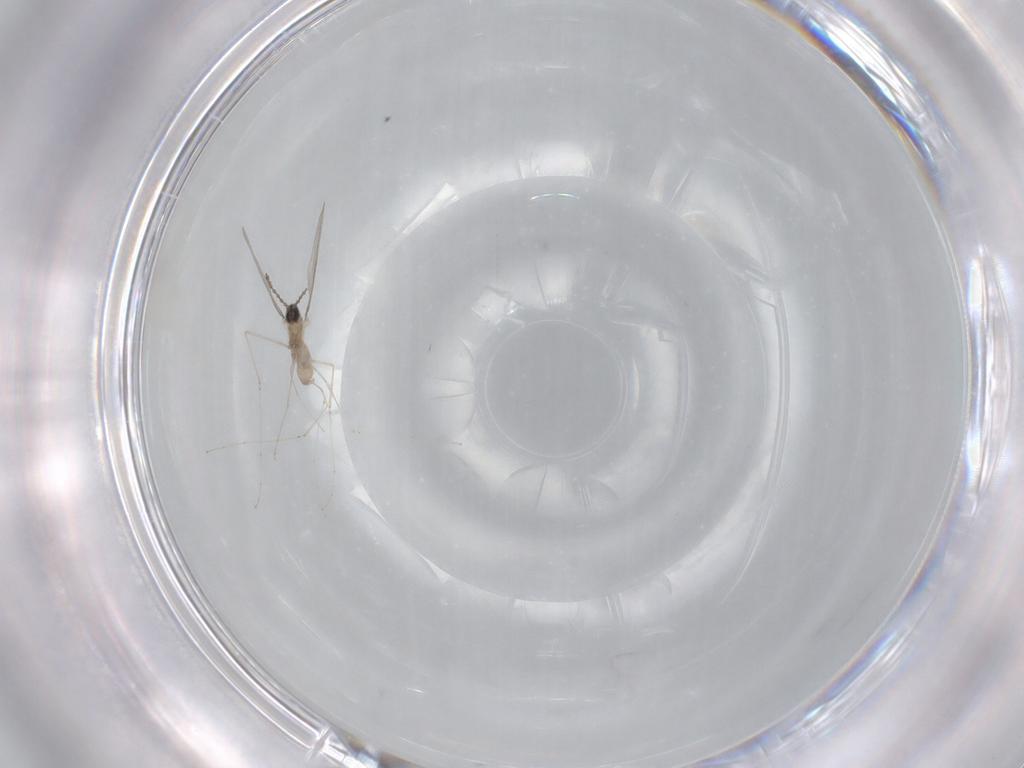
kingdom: Animalia
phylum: Arthropoda
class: Insecta
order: Diptera
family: Cecidomyiidae
